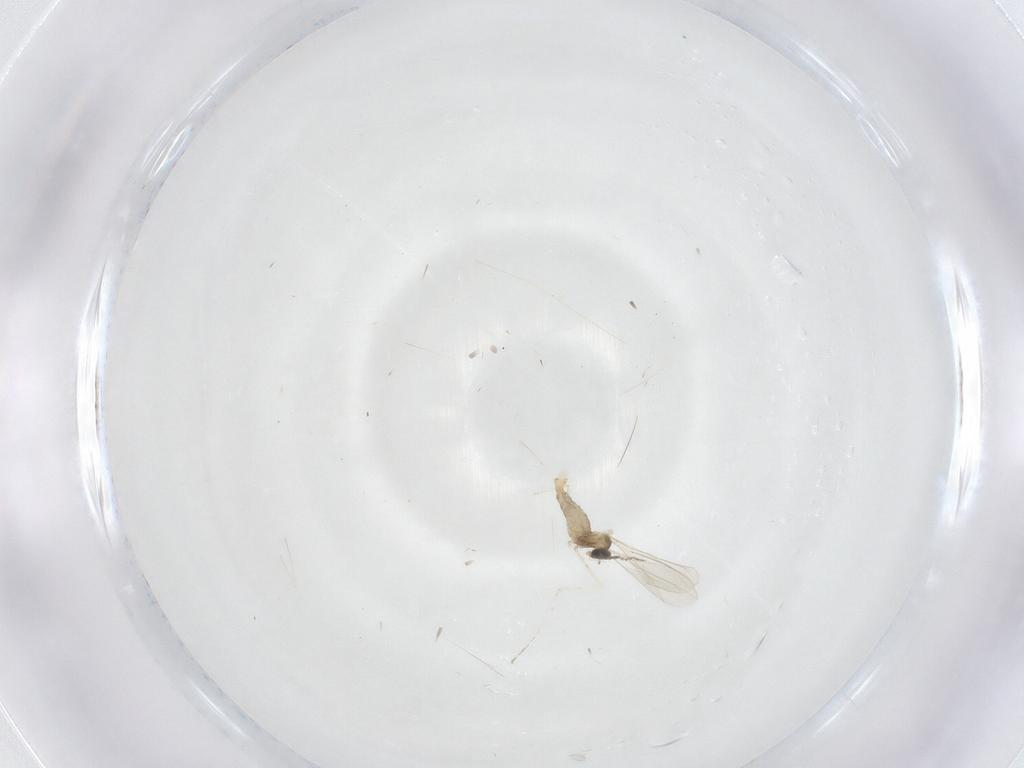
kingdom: Animalia
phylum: Arthropoda
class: Insecta
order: Diptera
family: Cecidomyiidae
